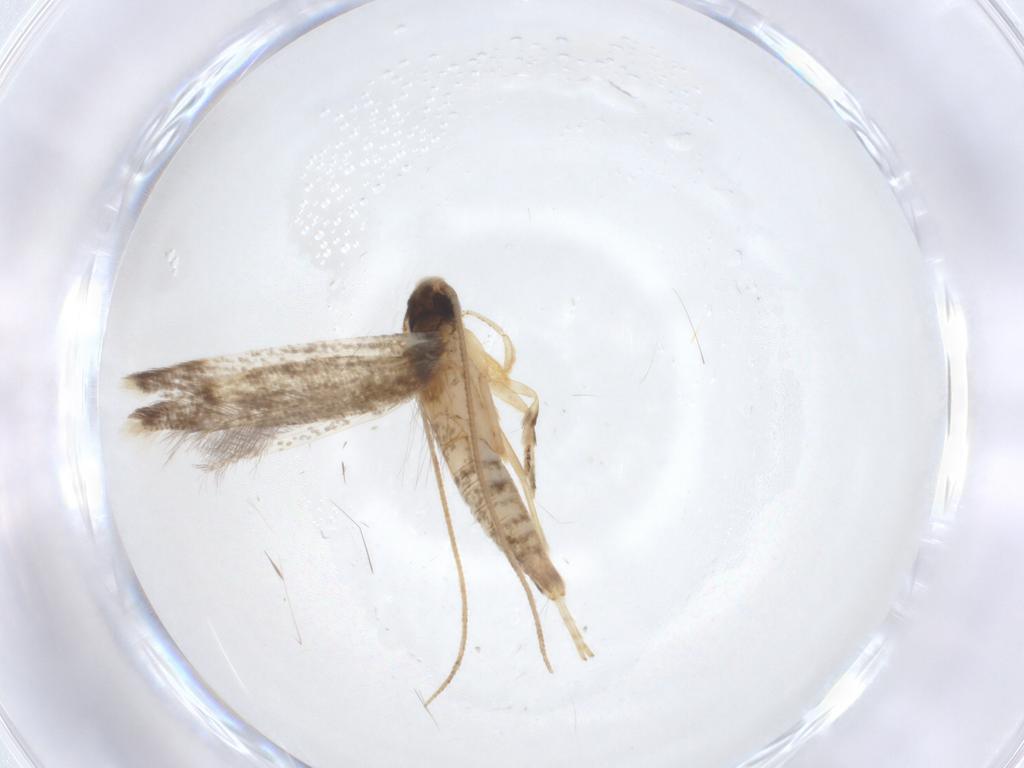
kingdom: Animalia
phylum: Arthropoda
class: Insecta
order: Lepidoptera
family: Gelechiidae
